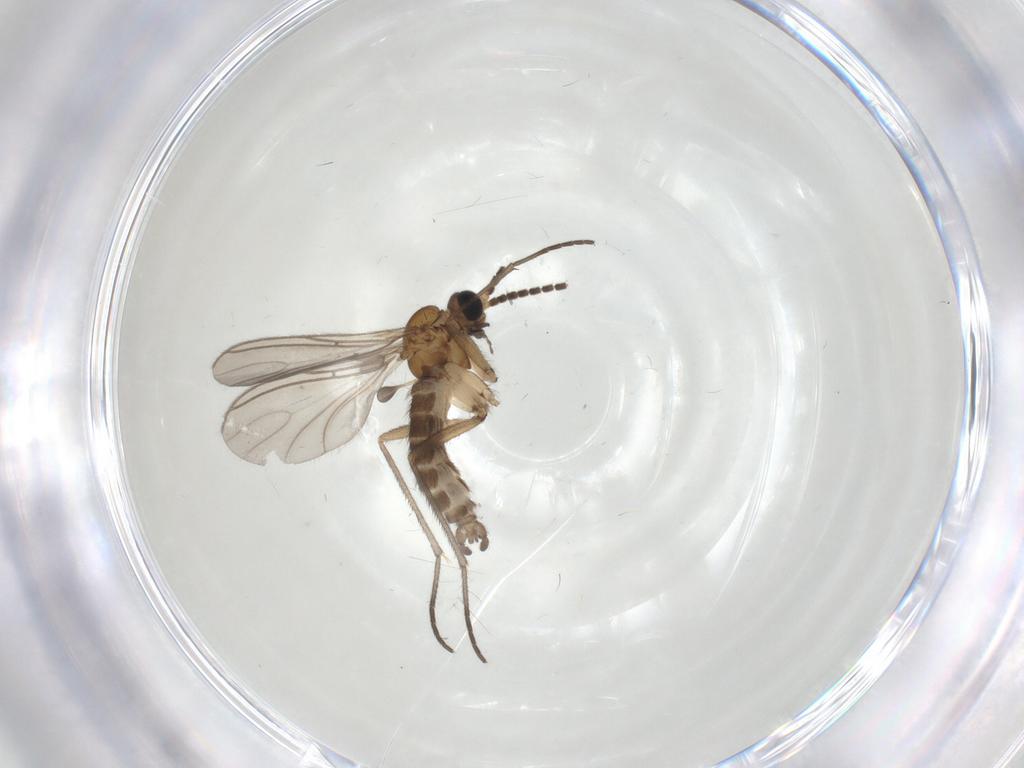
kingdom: Animalia
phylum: Arthropoda
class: Insecta
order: Diptera
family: Sciaridae
